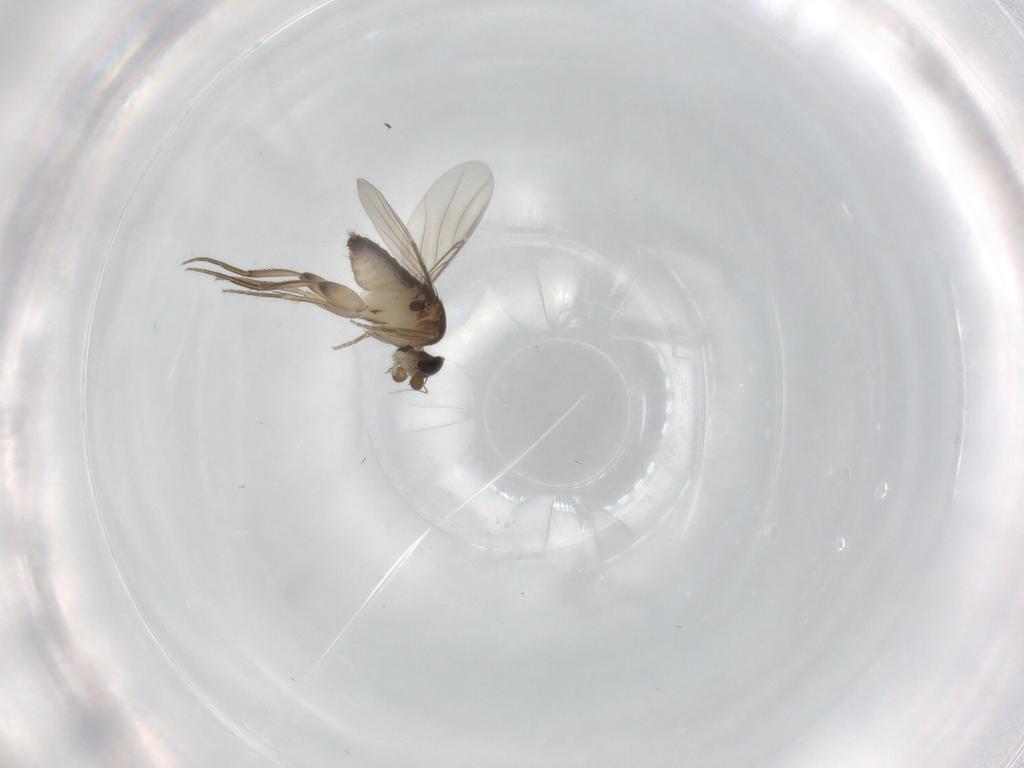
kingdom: Animalia
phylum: Arthropoda
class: Insecta
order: Diptera
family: Phoridae
